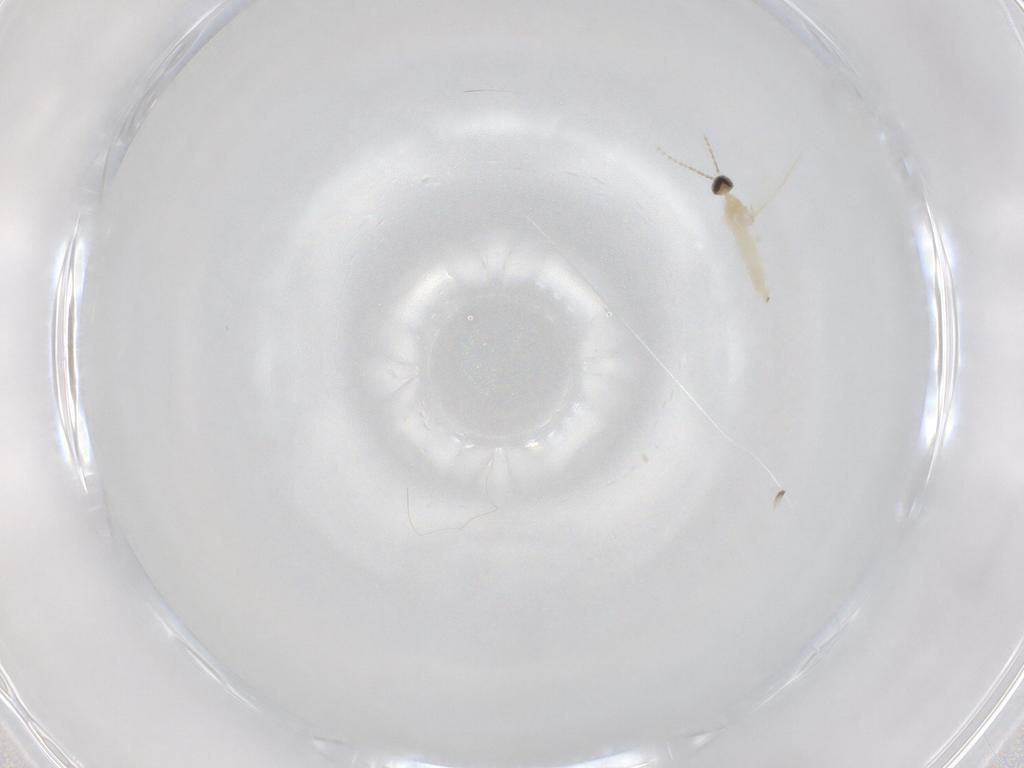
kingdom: Animalia
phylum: Arthropoda
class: Insecta
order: Diptera
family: Cecidomyiidae
